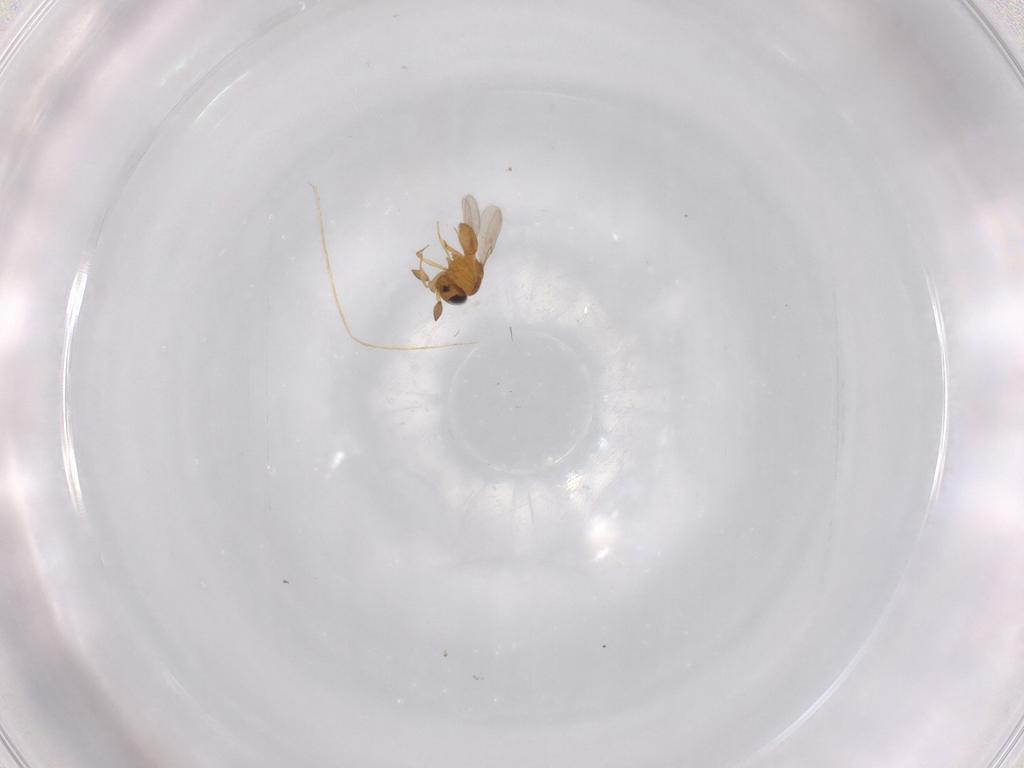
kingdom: Animalia
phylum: Arthropoda
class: Insecta
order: Hymenoptera
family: Scelionidae
